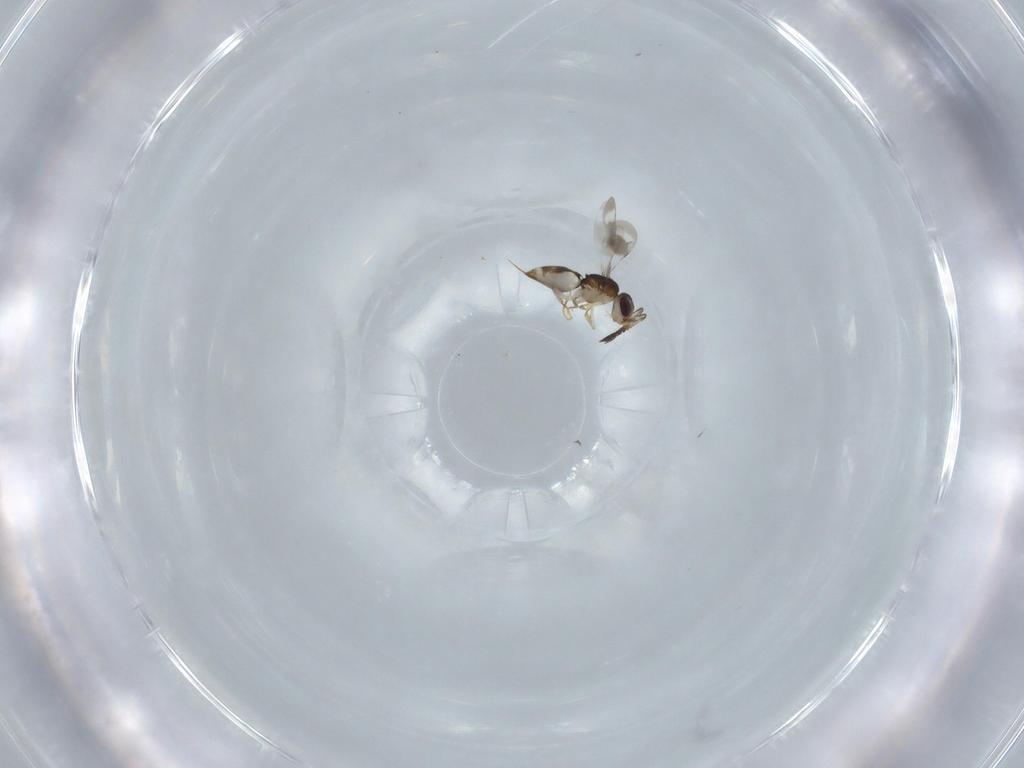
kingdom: Animalia
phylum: Arthropoda
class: Insecta
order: Hymenoptera
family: Ceraphronidae
